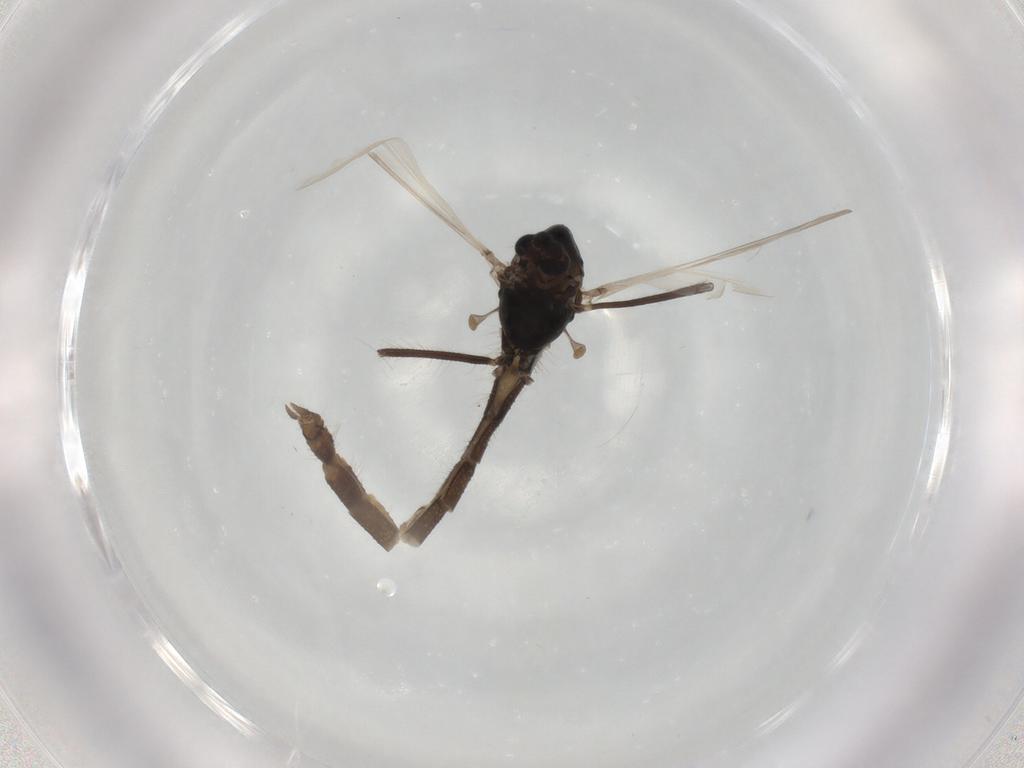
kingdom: Animalia
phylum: Arthropoda
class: Insecta
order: Diptera
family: Chironomidae
